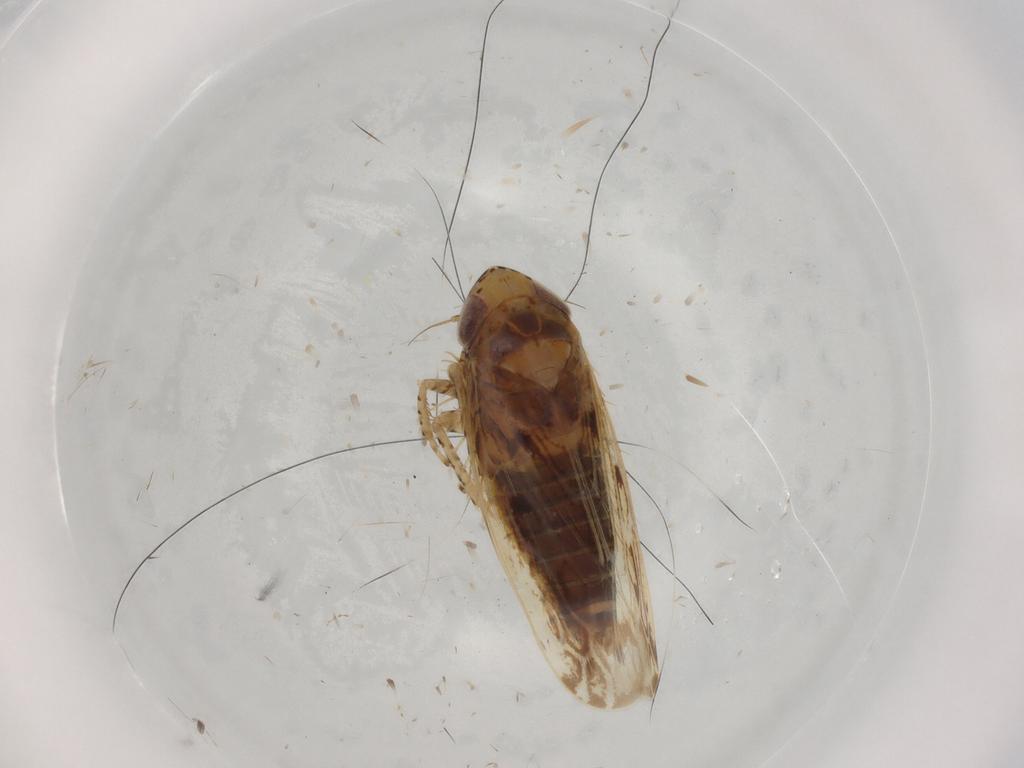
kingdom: Animalia
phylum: Arthropoda
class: Insecta
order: Hemiptera
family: Cicadellidae
